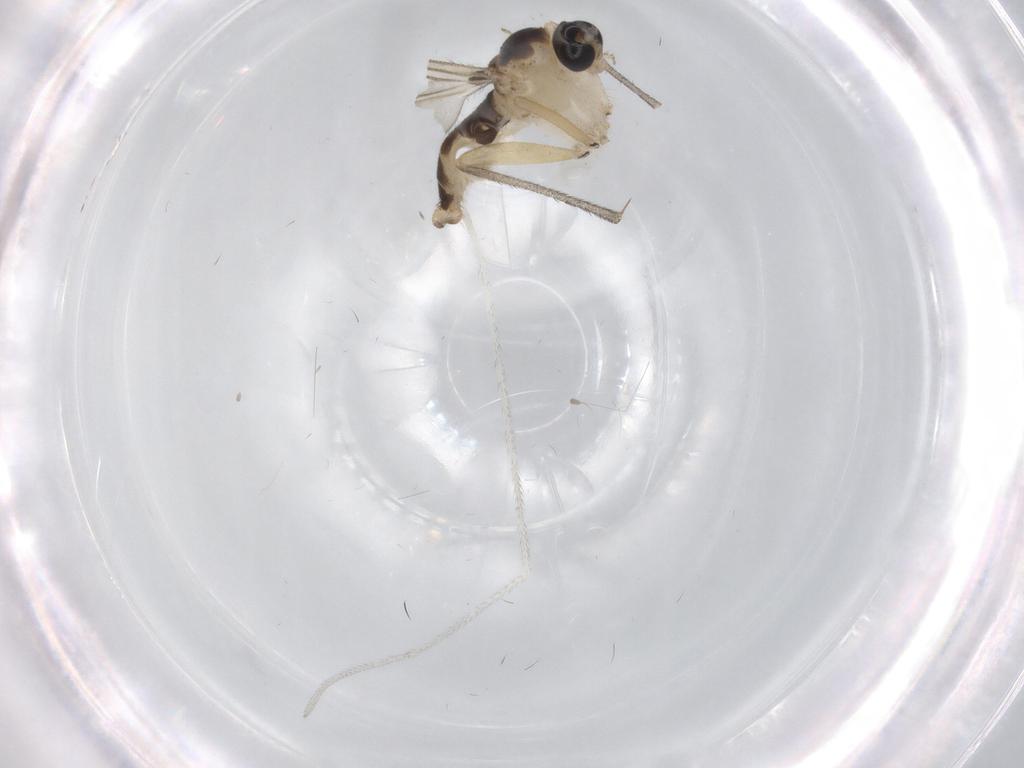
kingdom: Animalia
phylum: Arthropoda
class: Insecta
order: Diptera
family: Sciaridae
